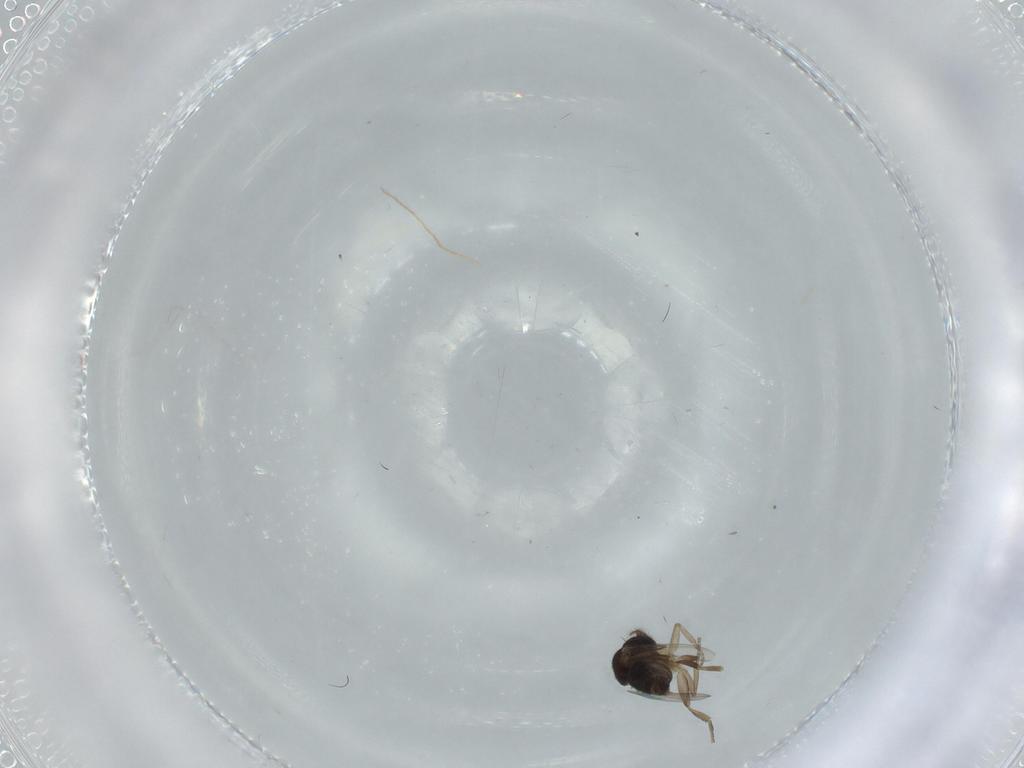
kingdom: Animalia
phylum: Arthropoda
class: Insecta
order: Diptera
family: Phoridae
